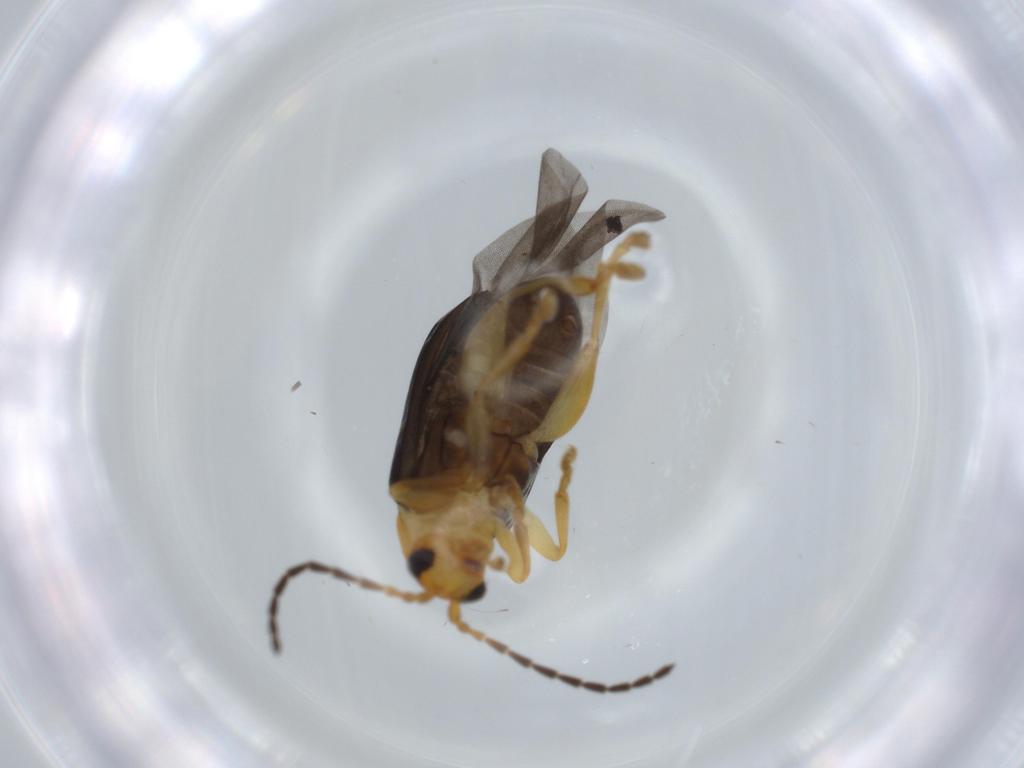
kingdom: Animalia
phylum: Arthropoda
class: Insecta
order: Coleoptera
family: Chrysomelidae
